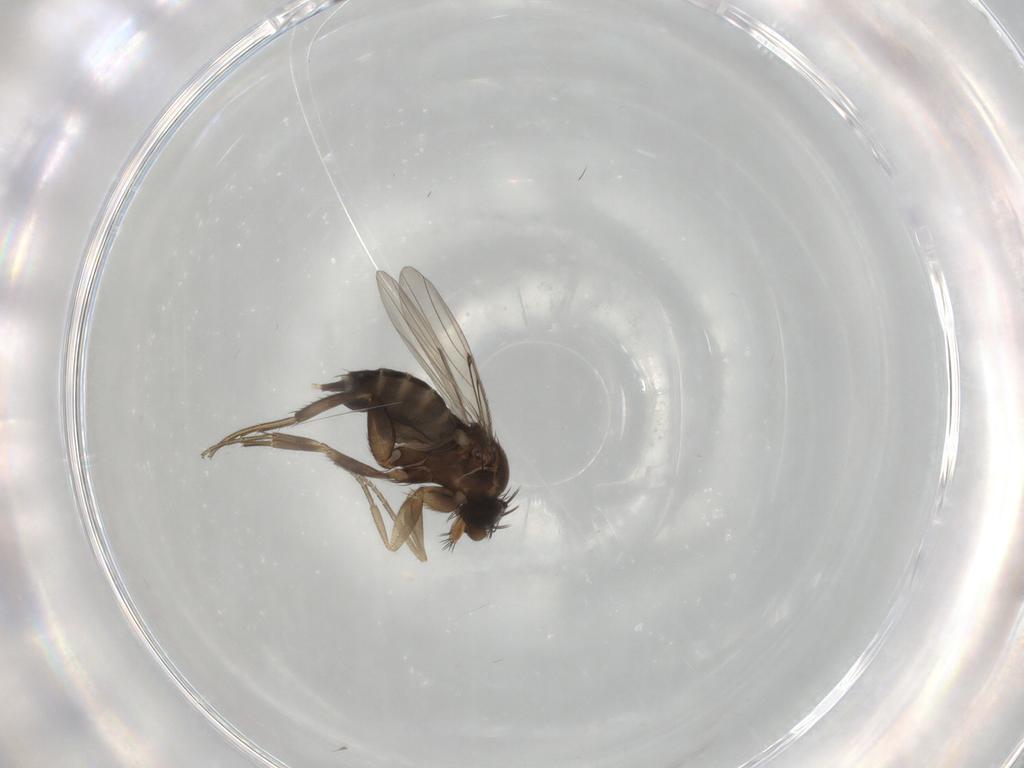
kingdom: Animalia
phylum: Arthropoda
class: Insecta
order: Diptera
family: Phoridae
